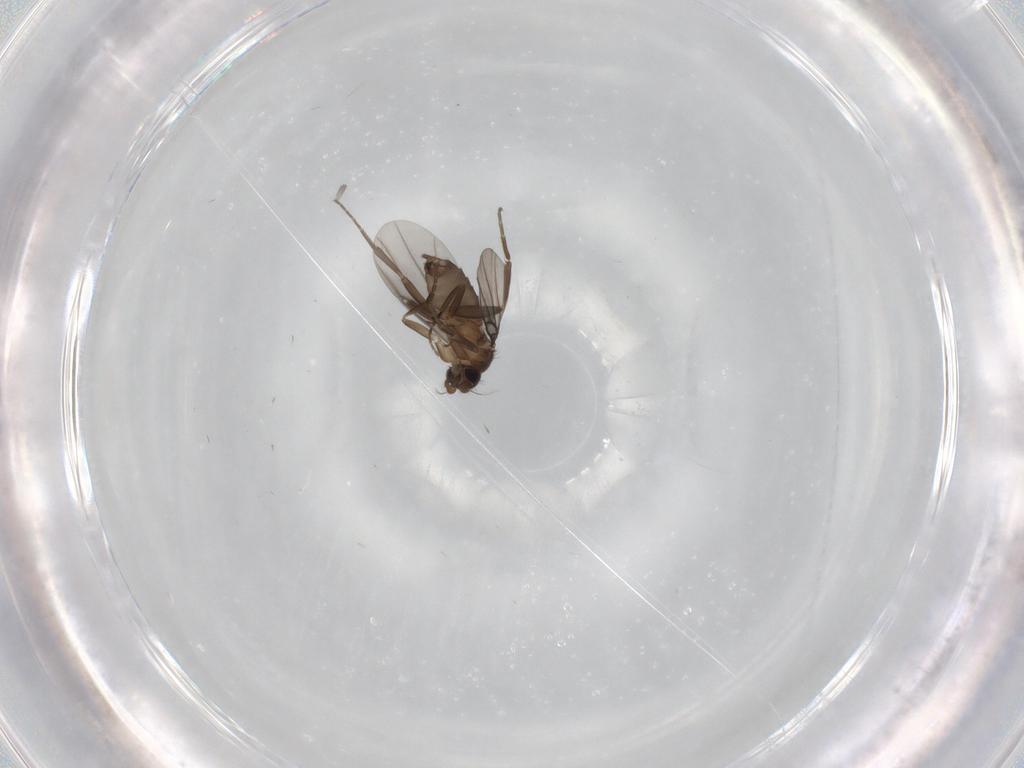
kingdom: Animalia
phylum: Arthropoda
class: Insecta
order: Diptera
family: Phoridae
